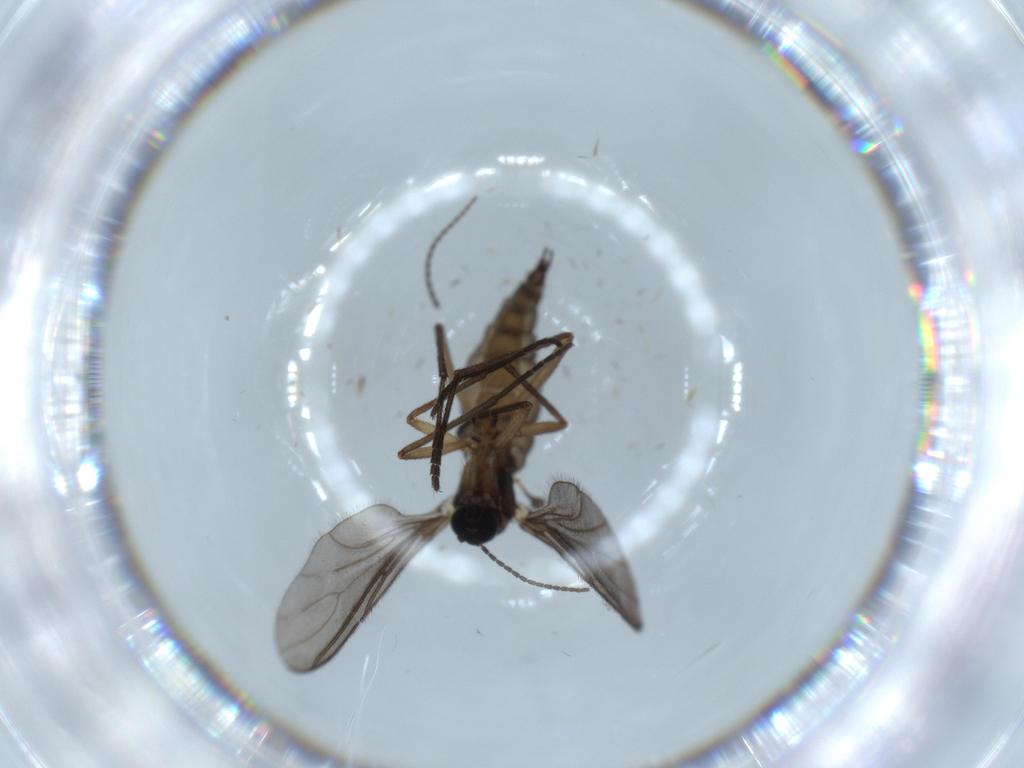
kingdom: Animalia
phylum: Arthropoda
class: Insecta
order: Diptera
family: Sciaridae
